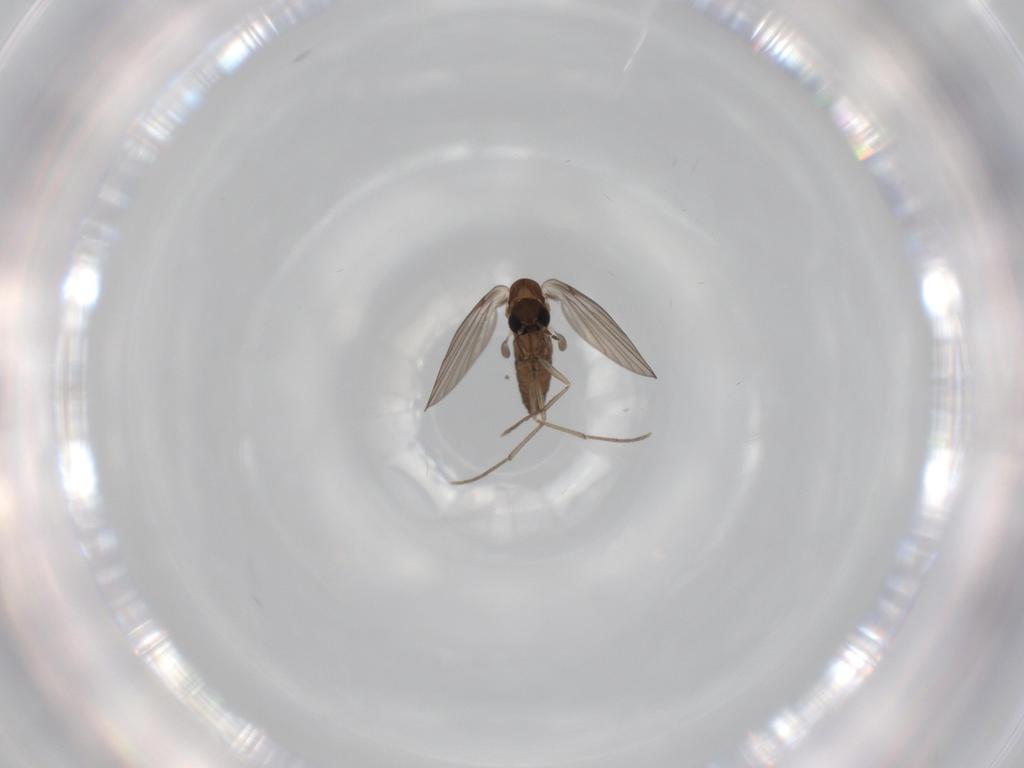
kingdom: Animalia
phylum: Arthropoda
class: Insecta
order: Diptera
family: Psychodidae
